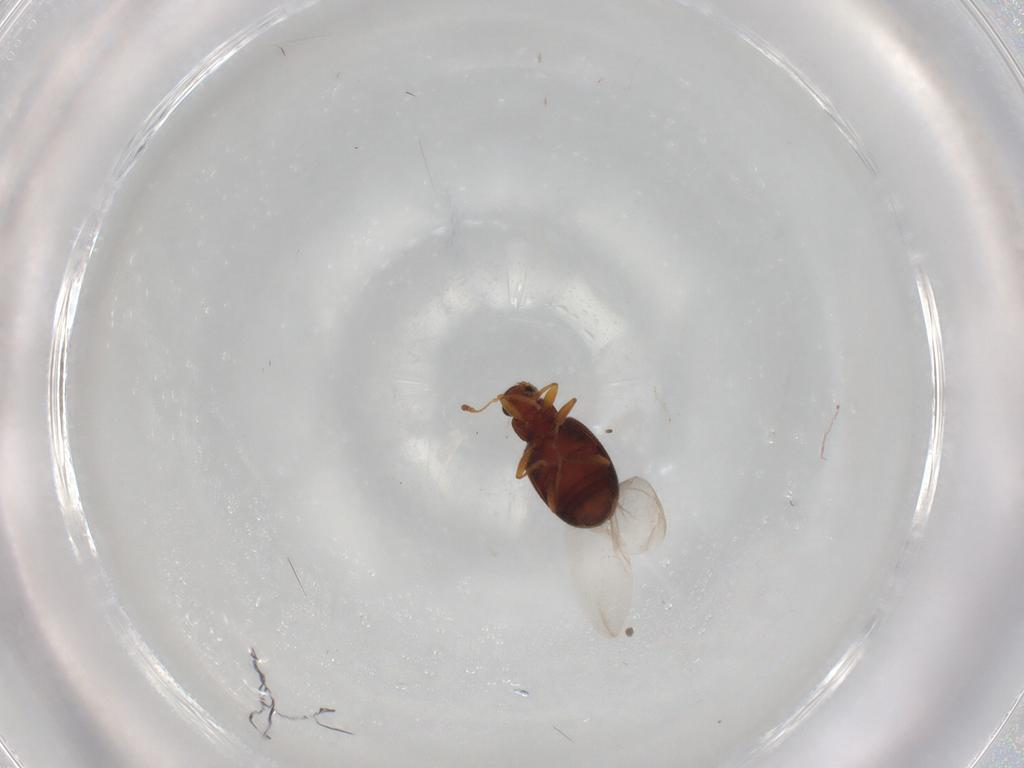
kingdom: Animalia
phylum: Arthropoda
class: Insecta
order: Coleoptera
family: Latridiidae
